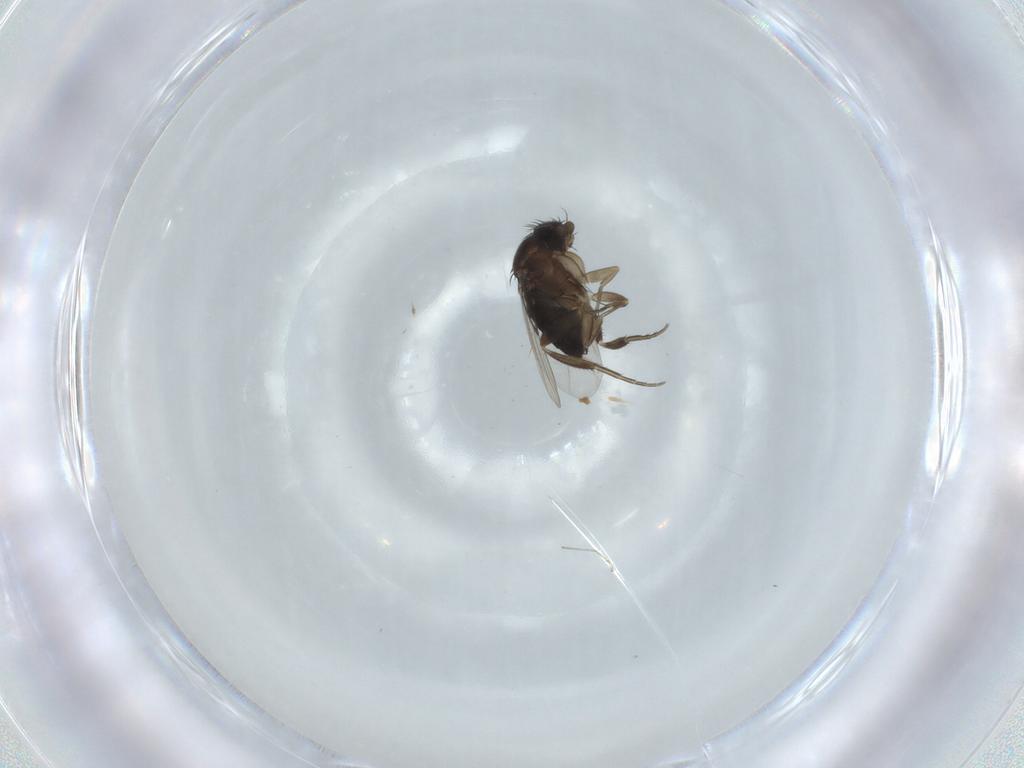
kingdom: Animalia
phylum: Arthropoda
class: Insecta
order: Diptera
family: Phoridae
